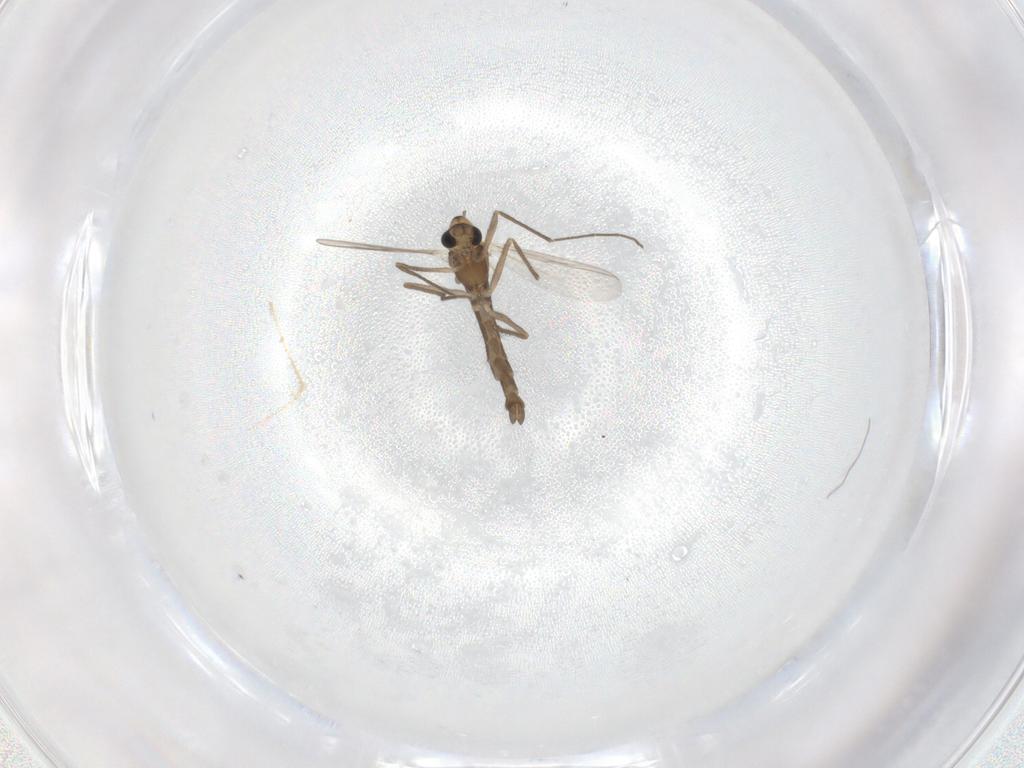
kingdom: Animalia
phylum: Arthropoda
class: Insecta
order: Diptera
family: Chironomidae
